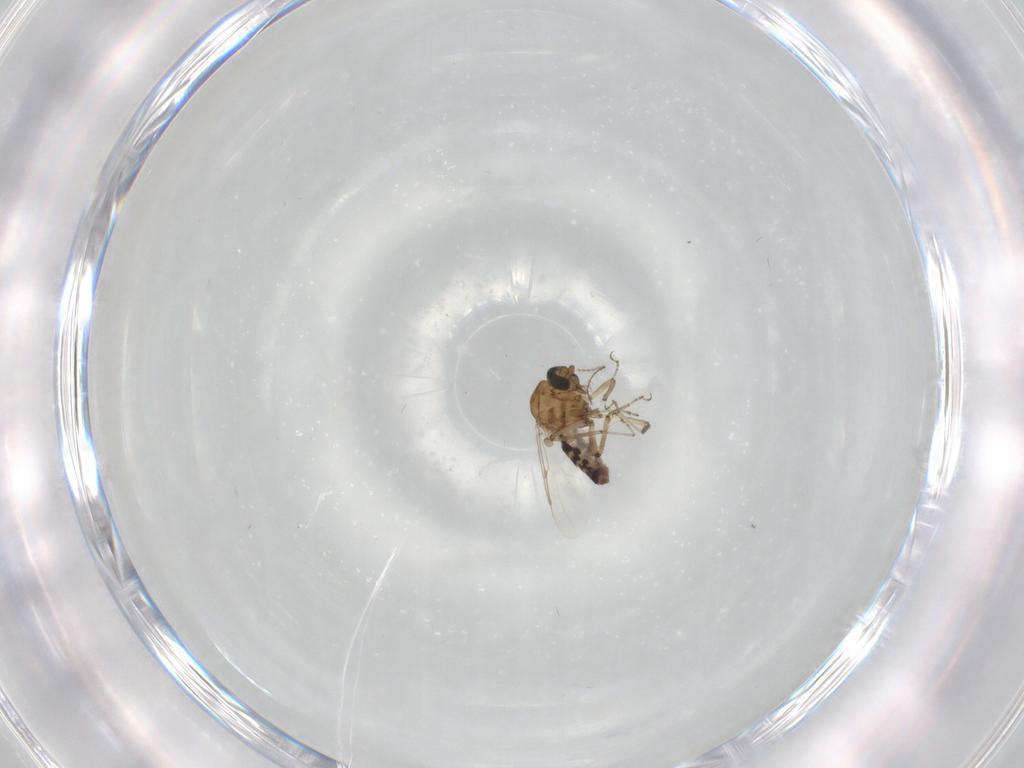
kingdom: Animalia
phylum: Arthropoda
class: Insecta
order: Diptera
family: Ceratopogonidae
